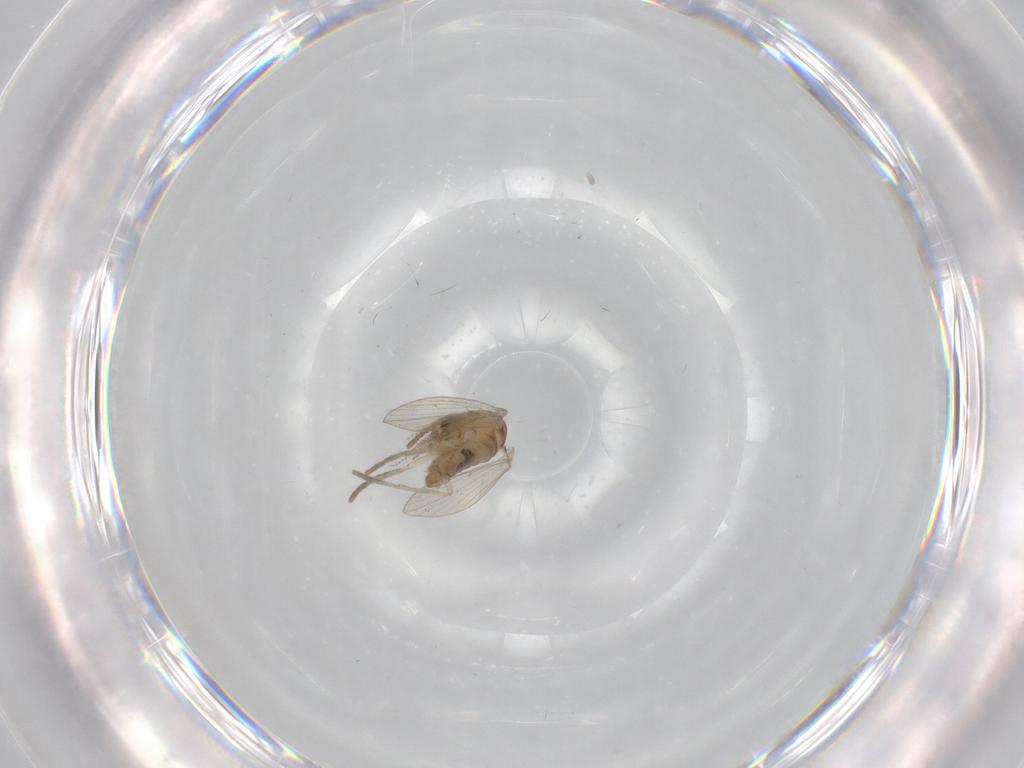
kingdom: Animalia
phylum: Arthropoda
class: Insecta
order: Diptera
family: Psychodidae
